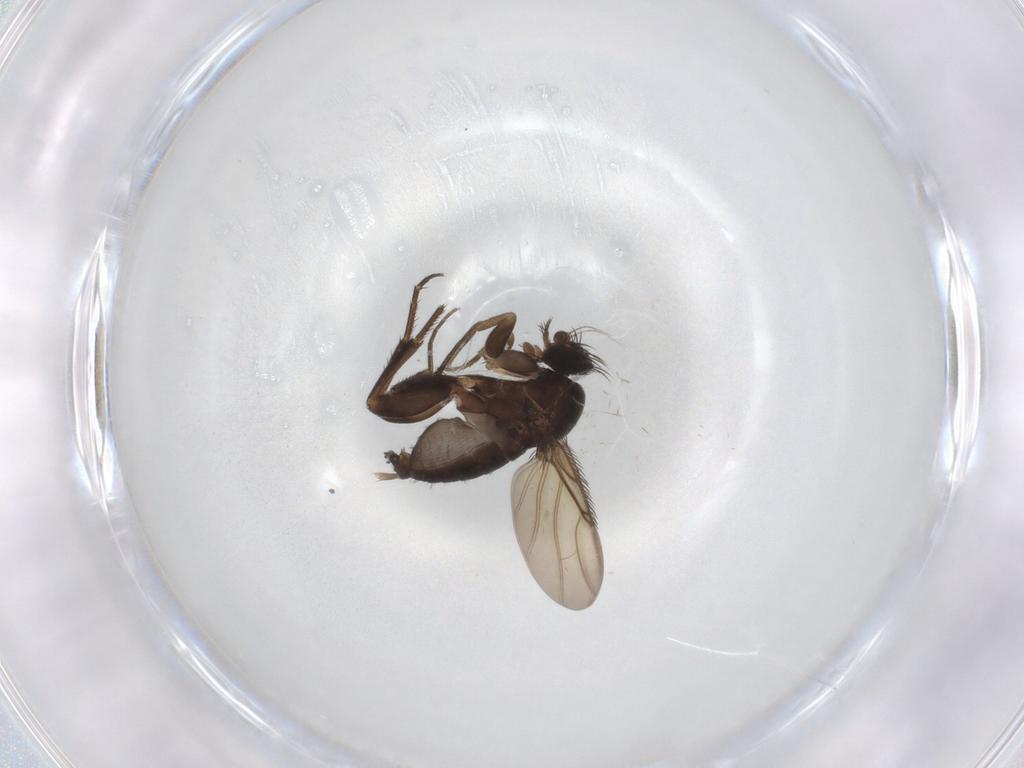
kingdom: Animalia
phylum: Arthropoda
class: Insecta
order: Diptera
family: Phoridae
